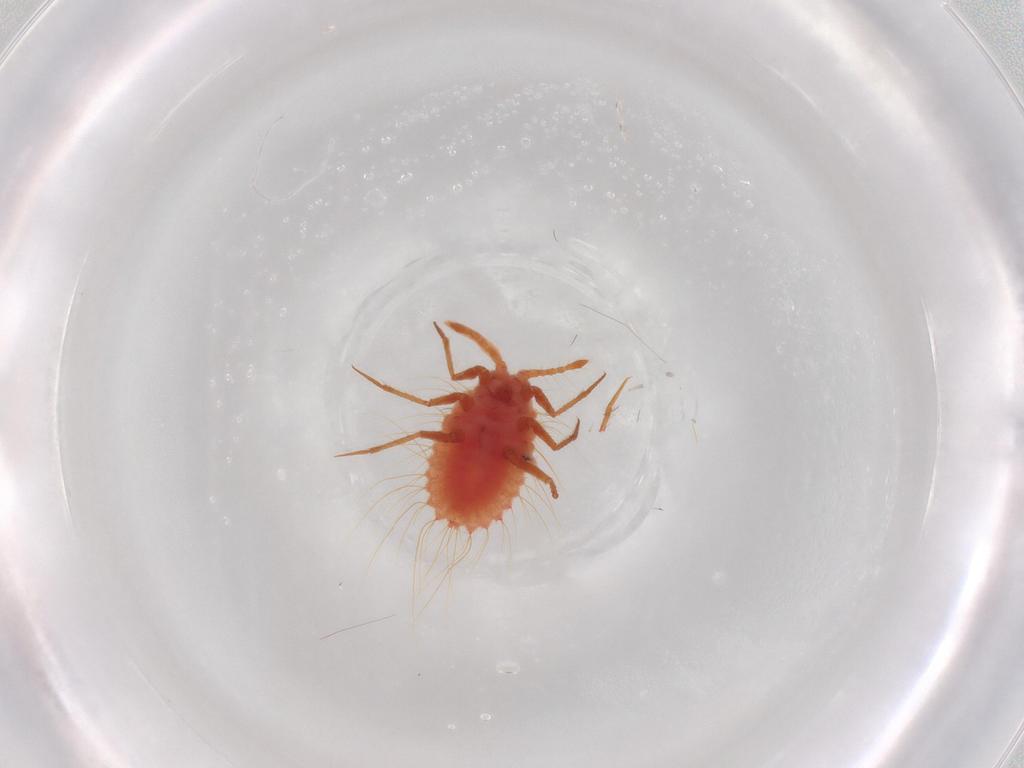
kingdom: Animalia
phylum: Arthropoda
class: Insecta
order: Hemiptera
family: Monophlebidae
